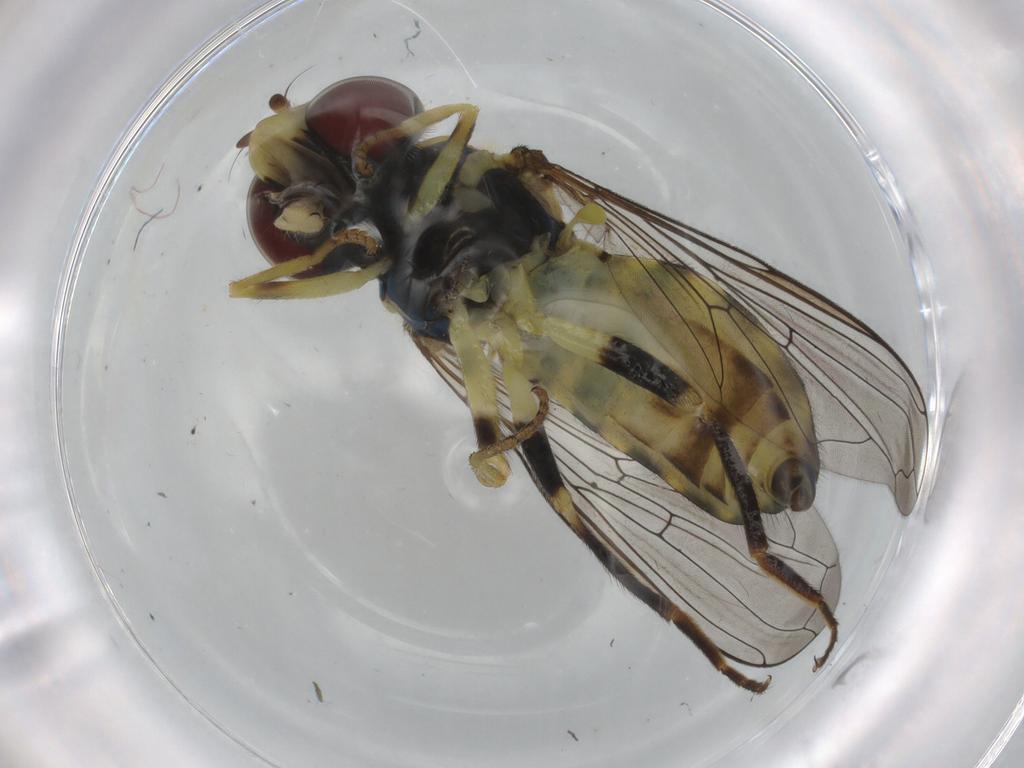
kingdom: Animalia
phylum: Arthropoda
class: Insecta
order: Diptera
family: Syrphidae
